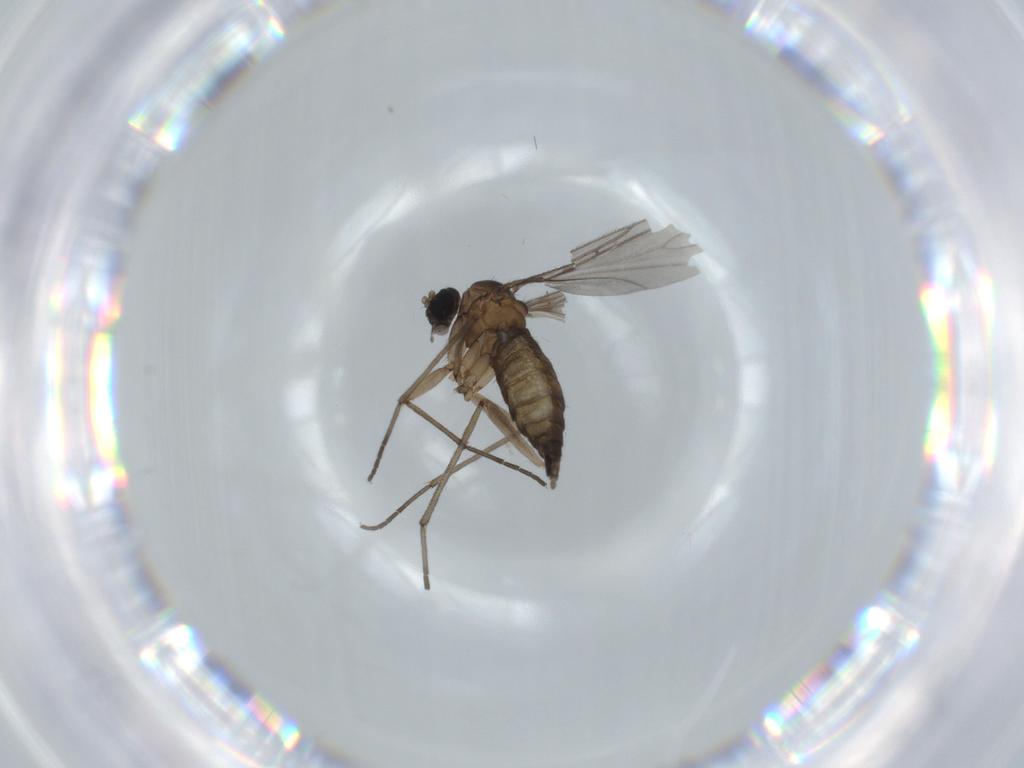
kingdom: Animalia
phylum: Arthropoda
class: Insecta
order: Diptera
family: Sciaridae
